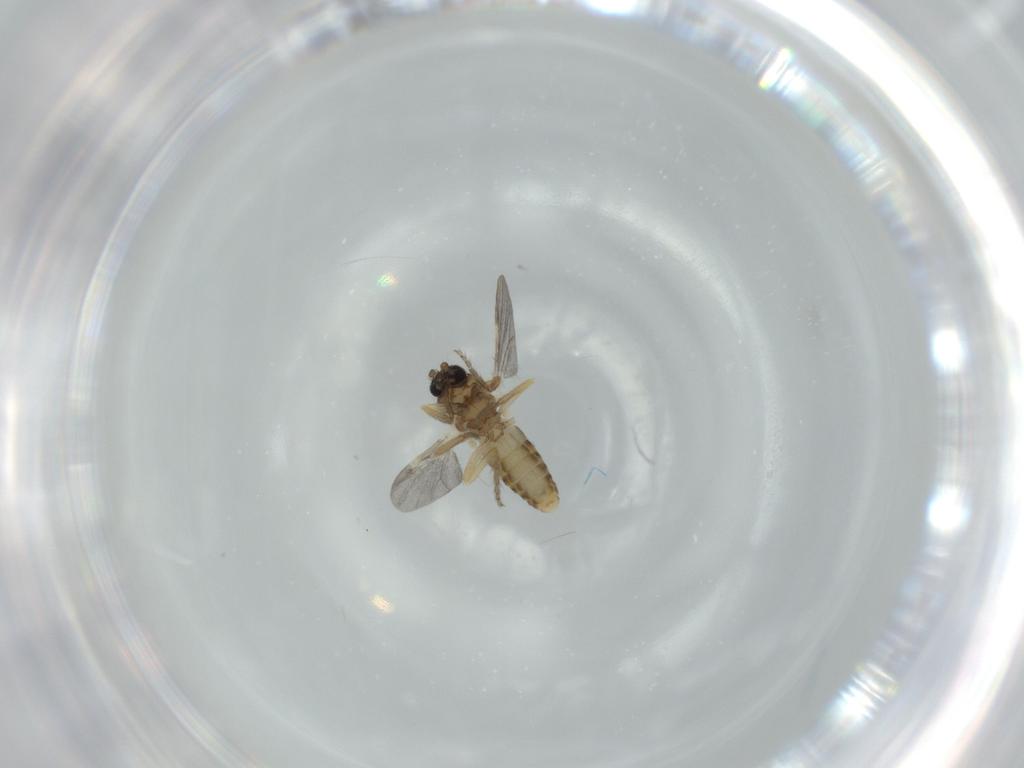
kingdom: Animalia
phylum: Arthropoda
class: Insecta
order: Diptera
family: Ceratopogonidae
